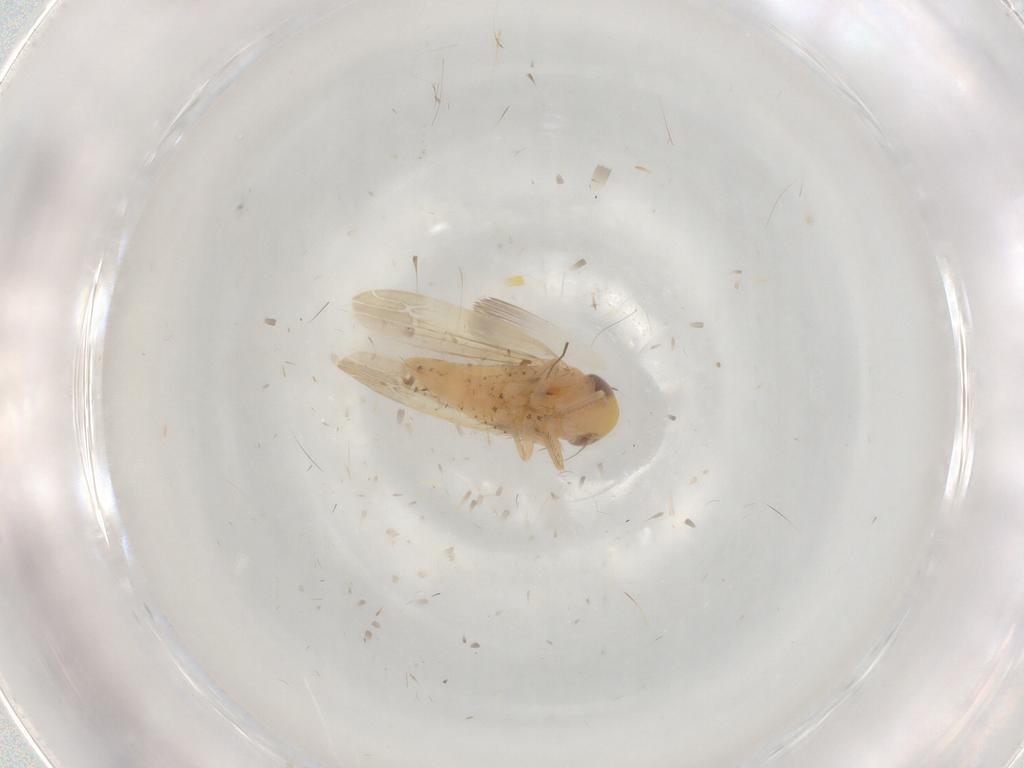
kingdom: Animalia
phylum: Arthropoda
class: Insecta
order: Hemiptera
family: Cicadellidae
